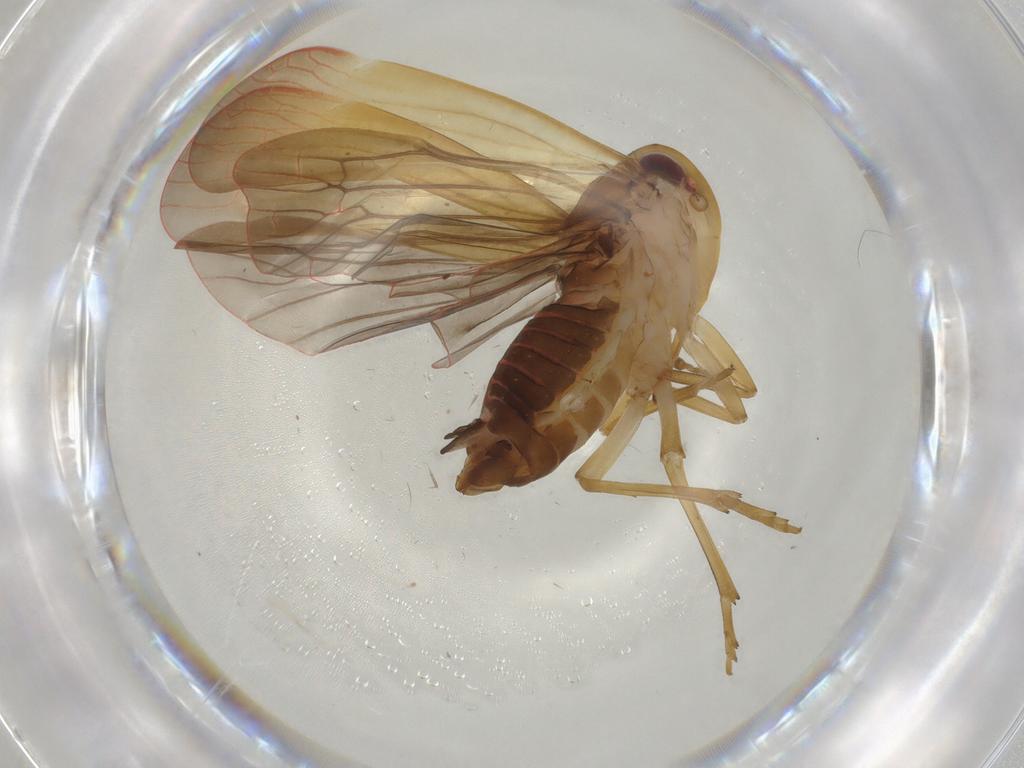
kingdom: Animalia
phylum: Arthropoda
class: Insecta
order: Hemiptera
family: Achilidae
